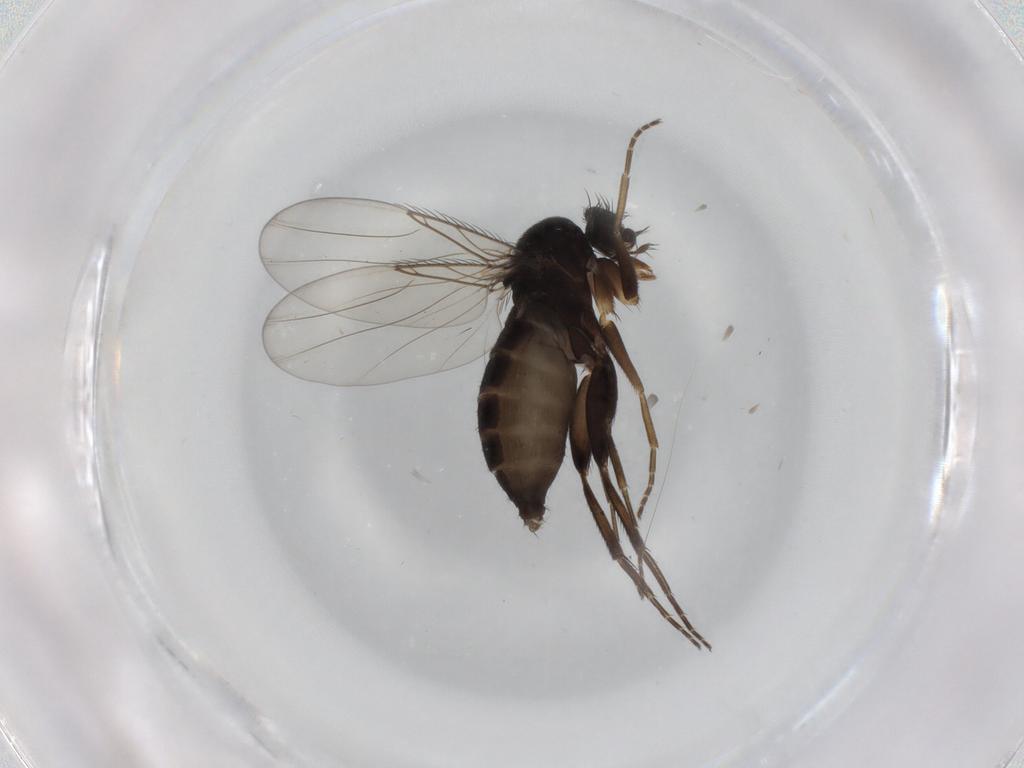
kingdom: Animalia
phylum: Arthropoda
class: Insecta
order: Diptera
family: Phoridae
